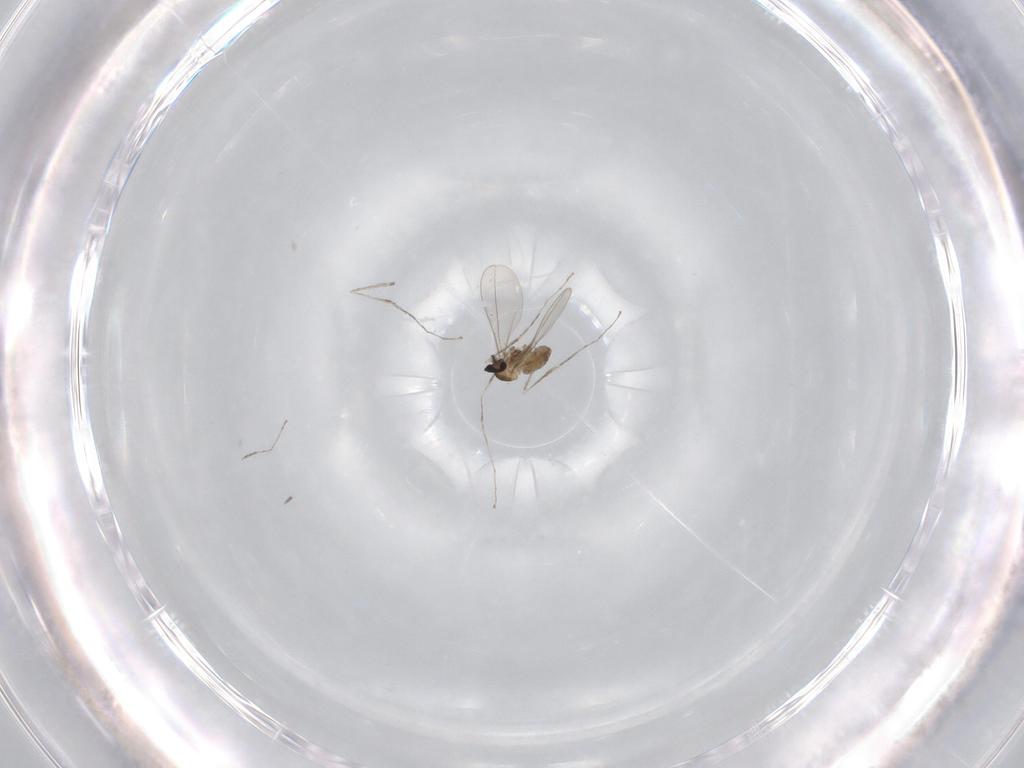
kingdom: Animalia
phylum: Arthropoda
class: Insecta
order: Diptera
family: Cecidomyiidae
